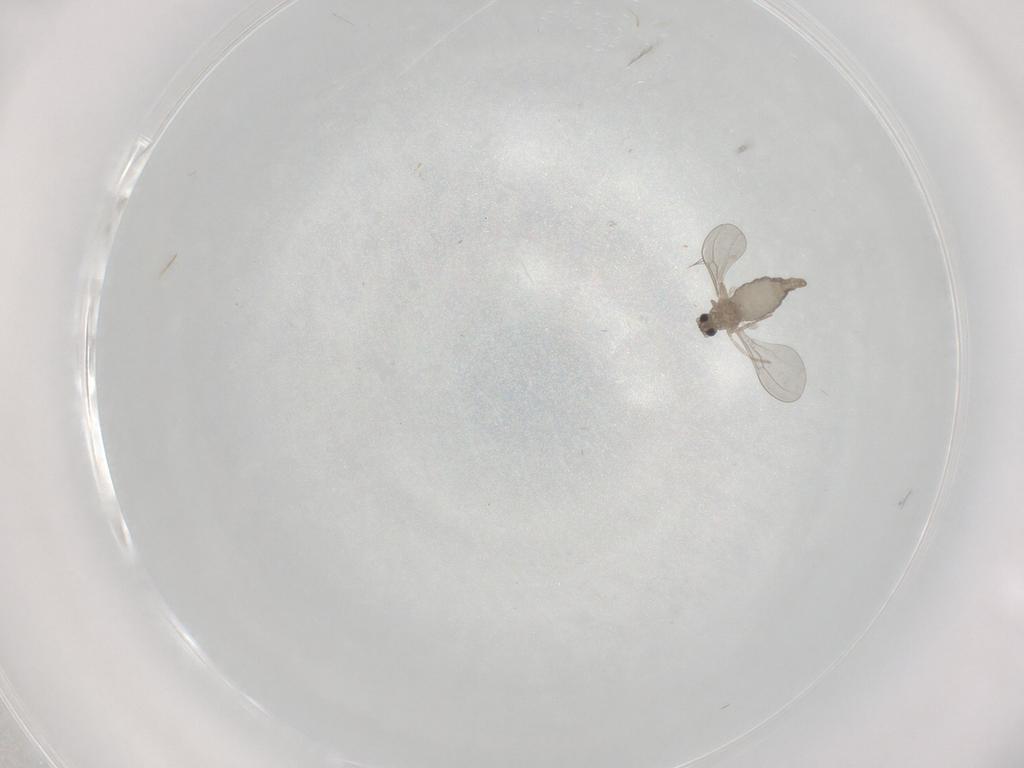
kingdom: Animalia
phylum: Arthropoda
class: Insecta
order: Diptera
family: Cecidomyiidae
